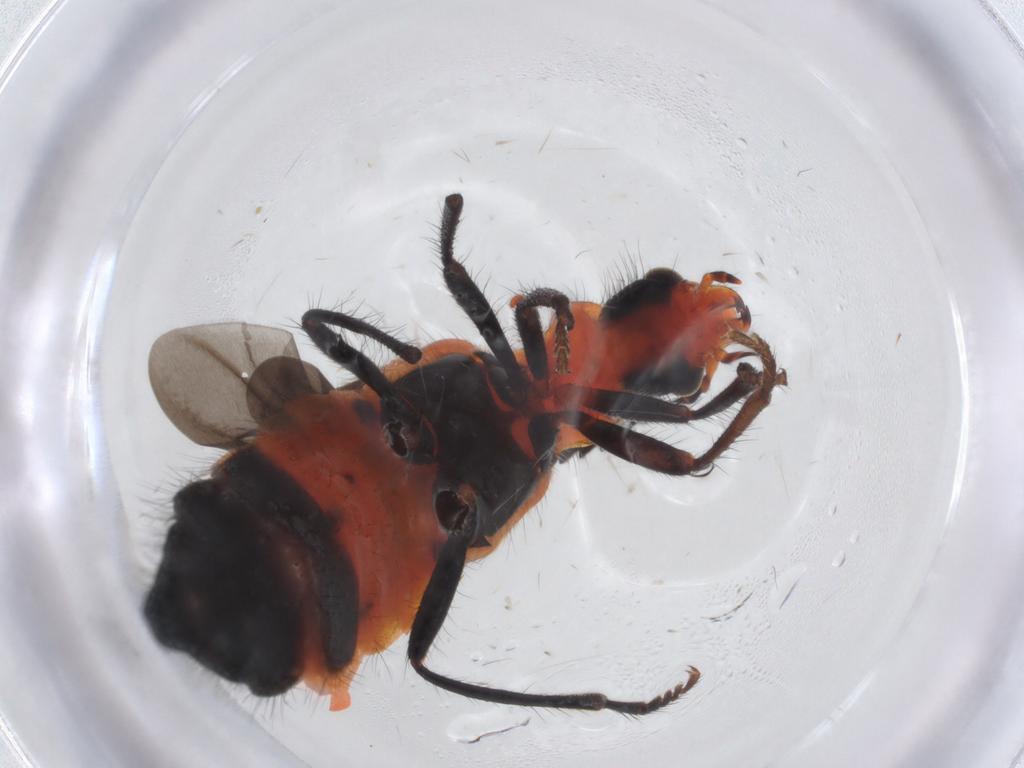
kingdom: Animalia
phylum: Arthropoda
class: Insecta
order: Coleoptera
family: Melyridae
